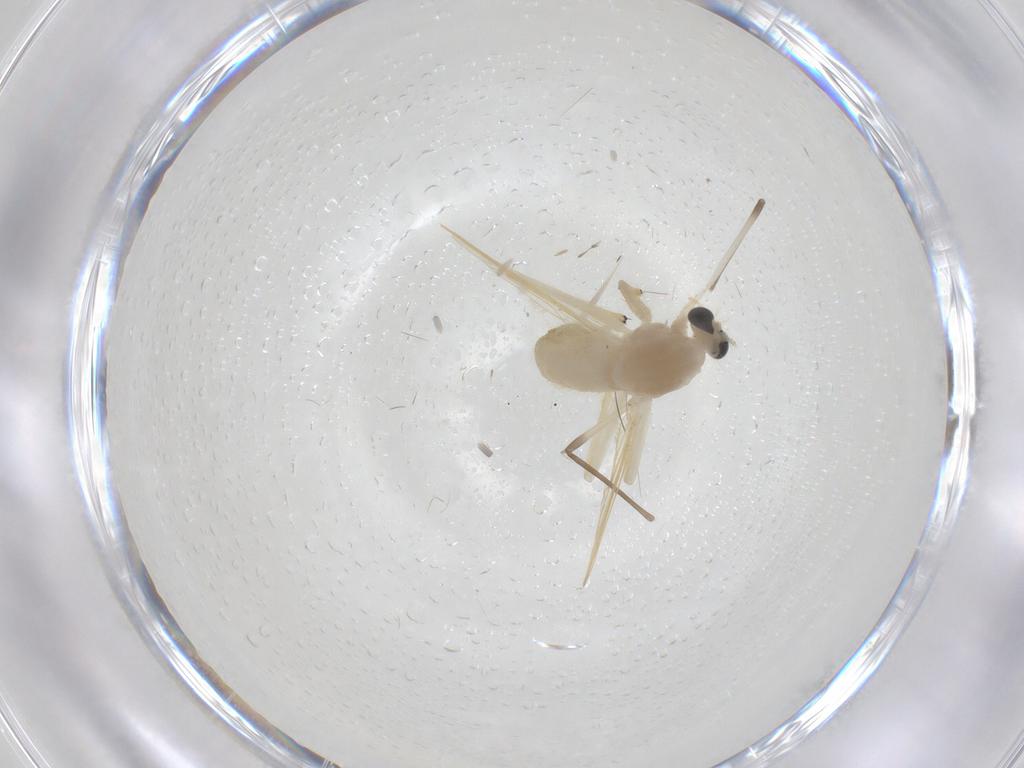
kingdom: Animalia
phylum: Arthropoda
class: Insecta
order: Diptera
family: Chironomidae
